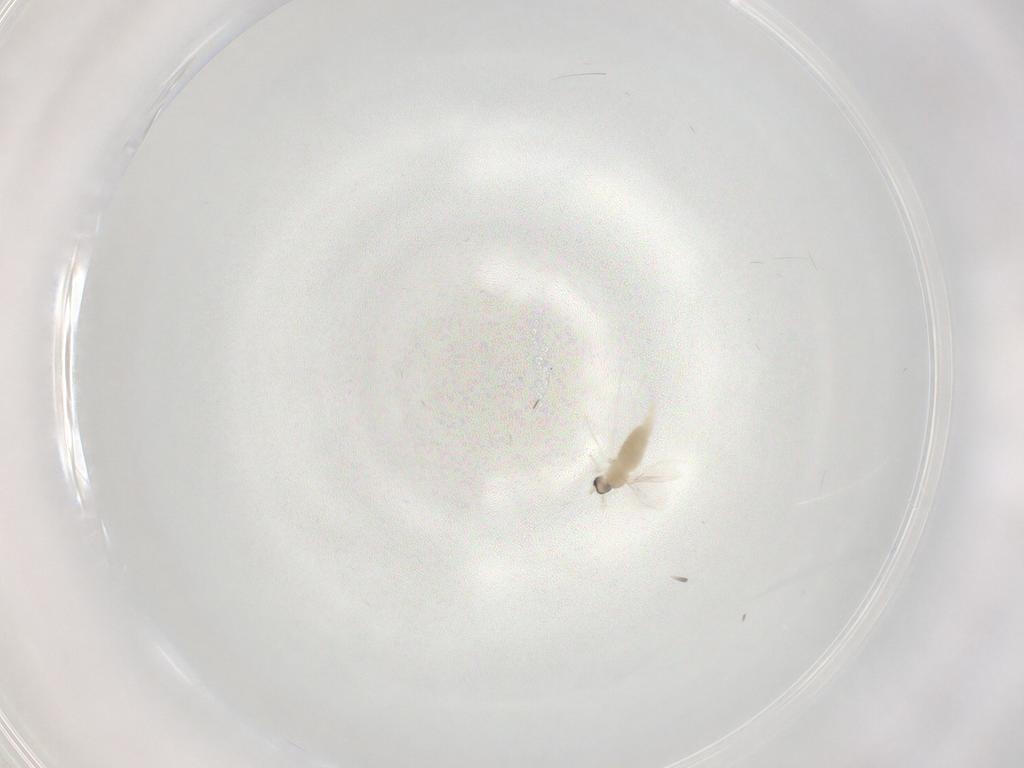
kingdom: Animalia
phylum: Arthropoda
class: Insecta
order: Diptera
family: Cecidomyiidae
